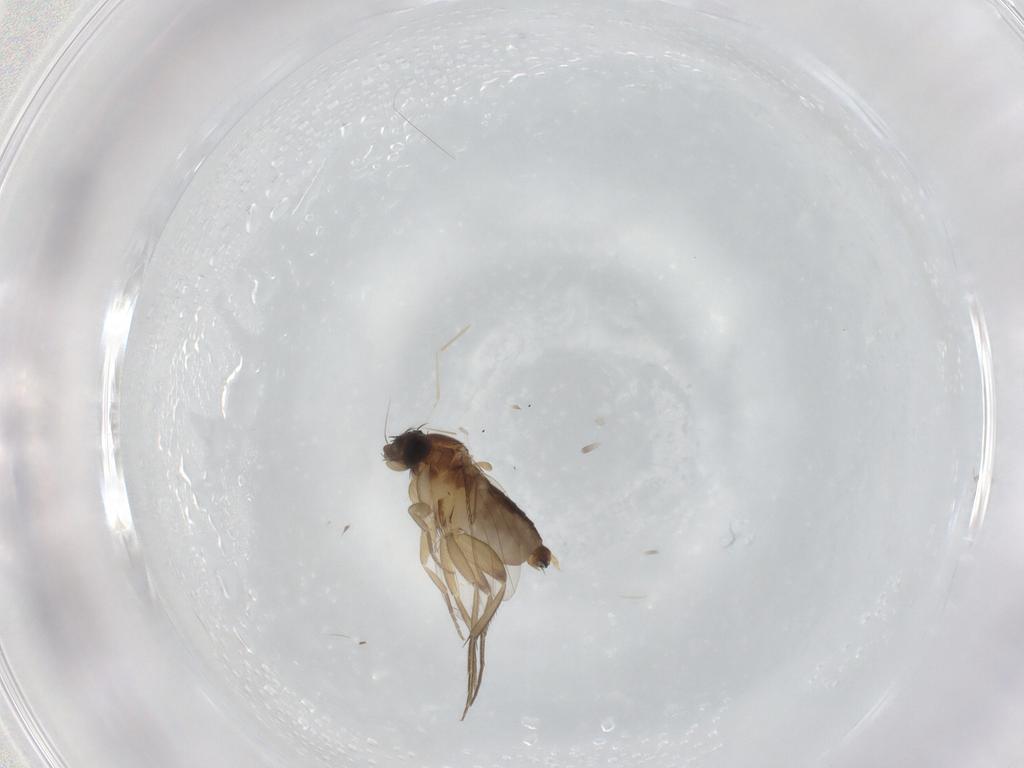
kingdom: Animalia
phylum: Arthropoda
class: Insecta
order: Diptera
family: Phoridae
